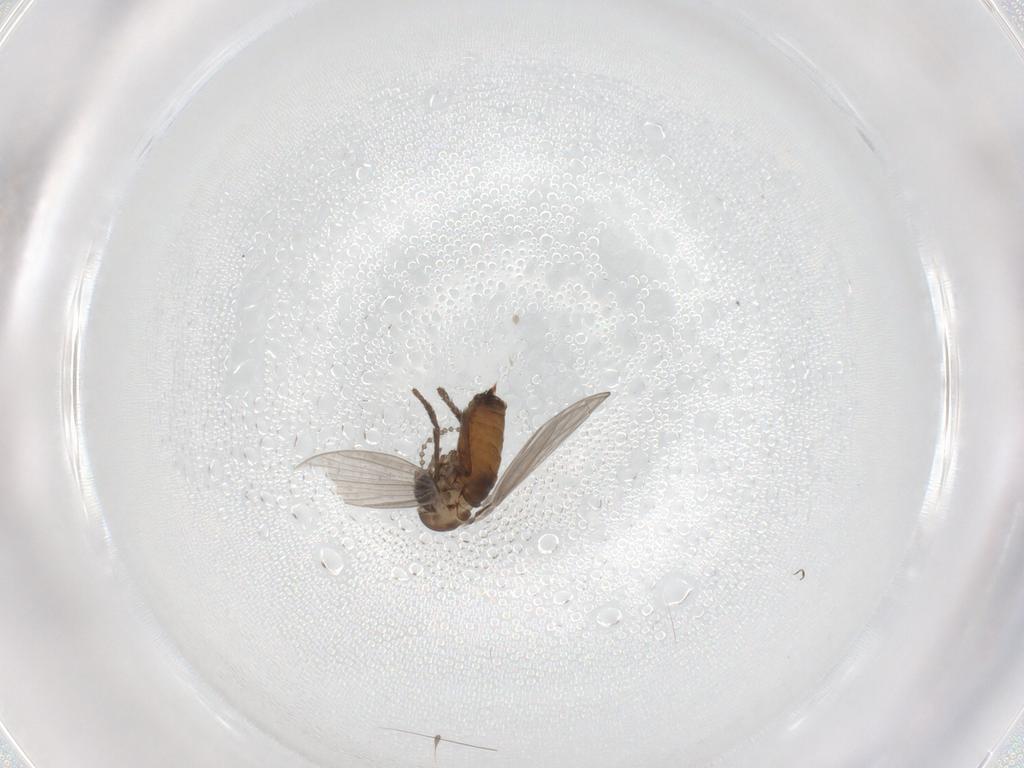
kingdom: Animalia
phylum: Arthropoda
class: Insecta
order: Diptera
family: Psychodidae
